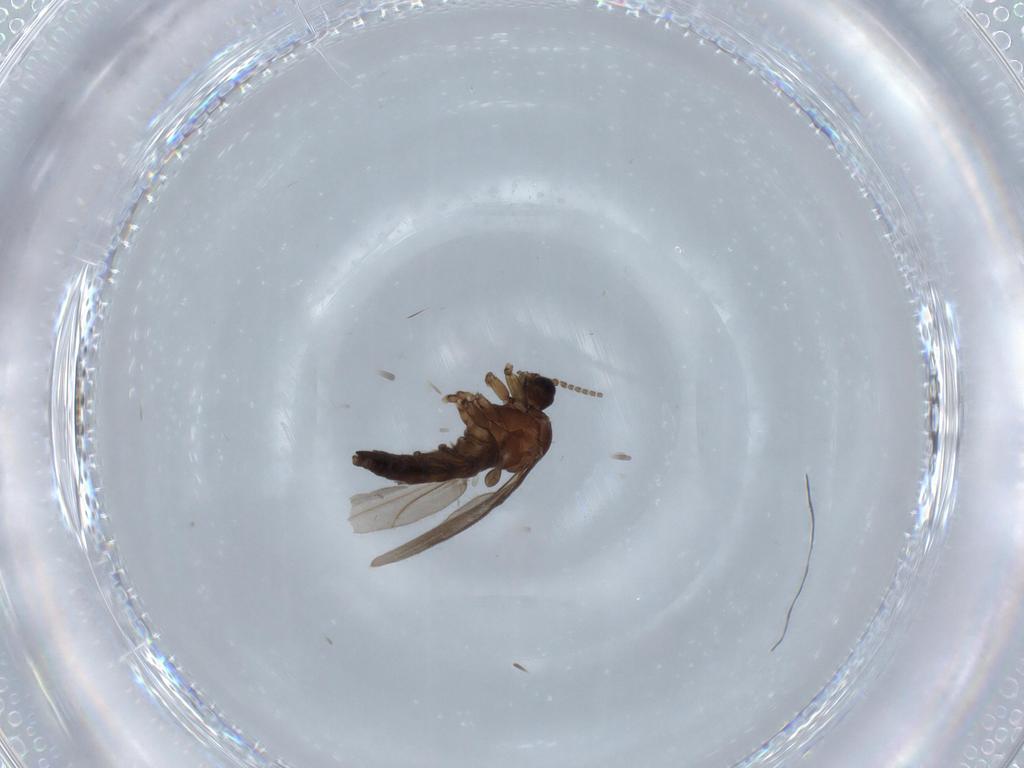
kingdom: Animalia
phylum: Arthropoda
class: Insecta
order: Diptera
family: Sciaridae
